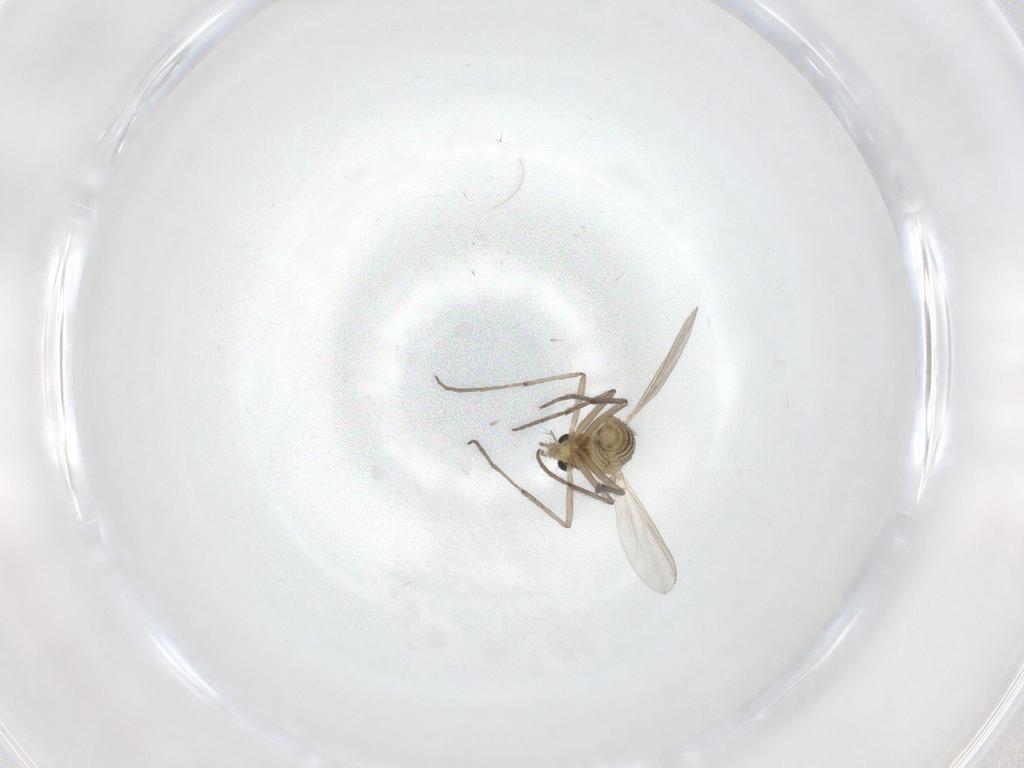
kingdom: Animalia
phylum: Arthropoda
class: Insecta
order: Diptera
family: Chironomidae
